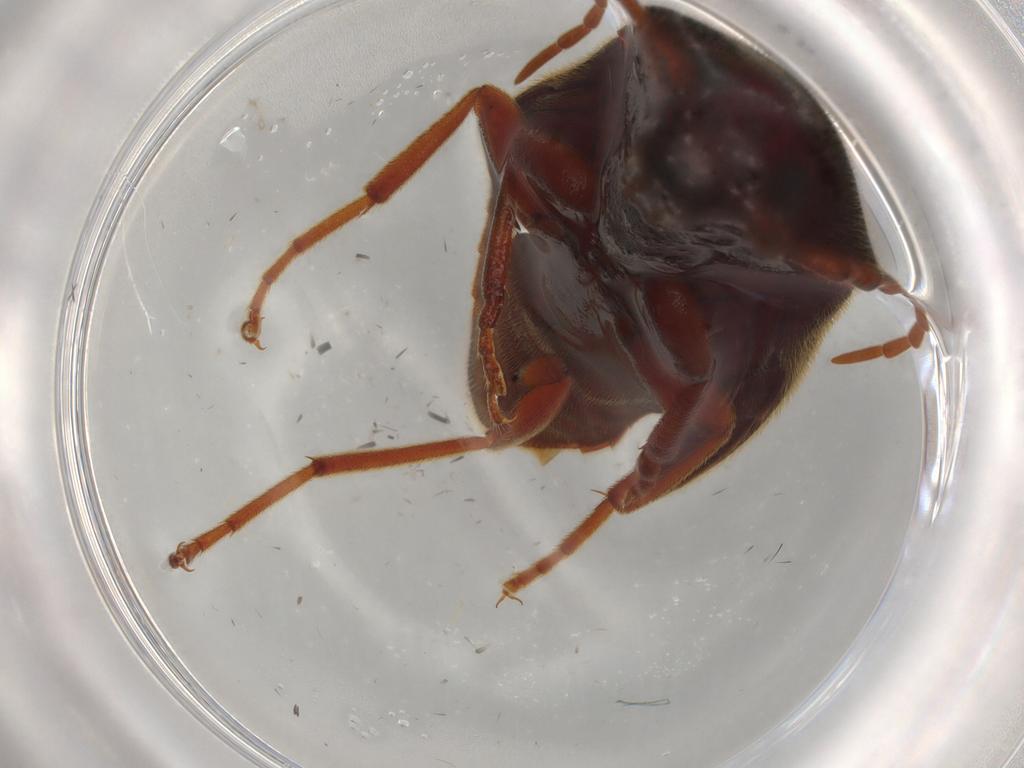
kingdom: Animalia
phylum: Arthropoda
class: Insecta
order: Coleoptera
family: Eucnemidae
